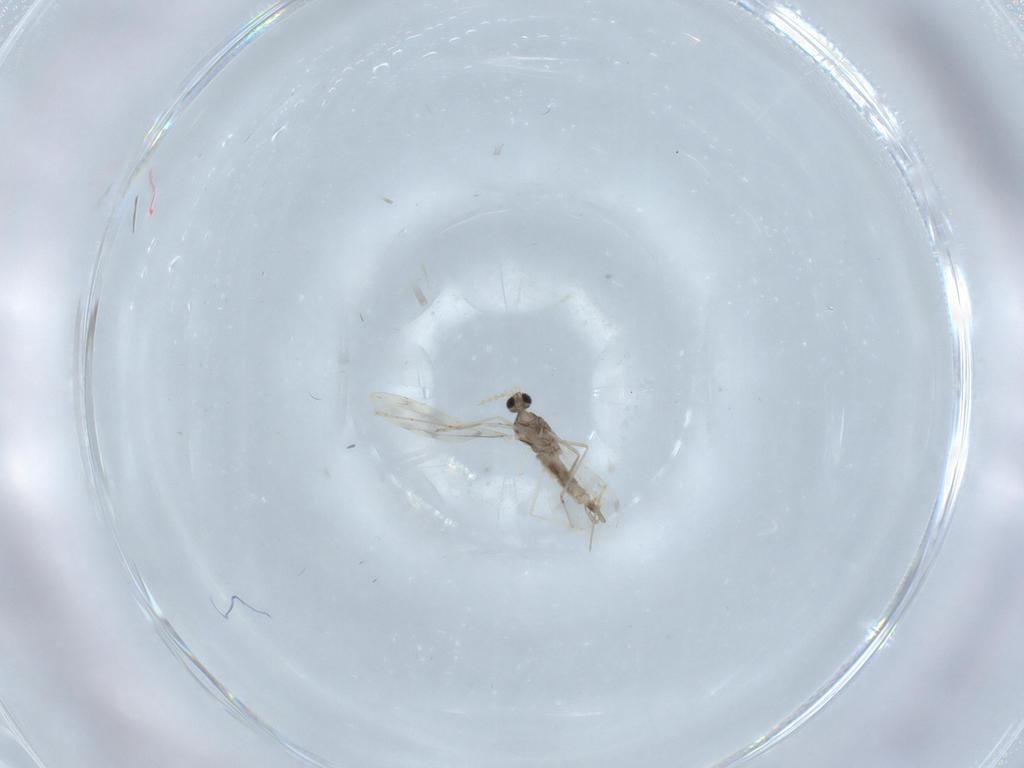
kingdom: Animalia
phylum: Arthropoda
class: Insecta
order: Diptera
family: Cecidomyiidae
